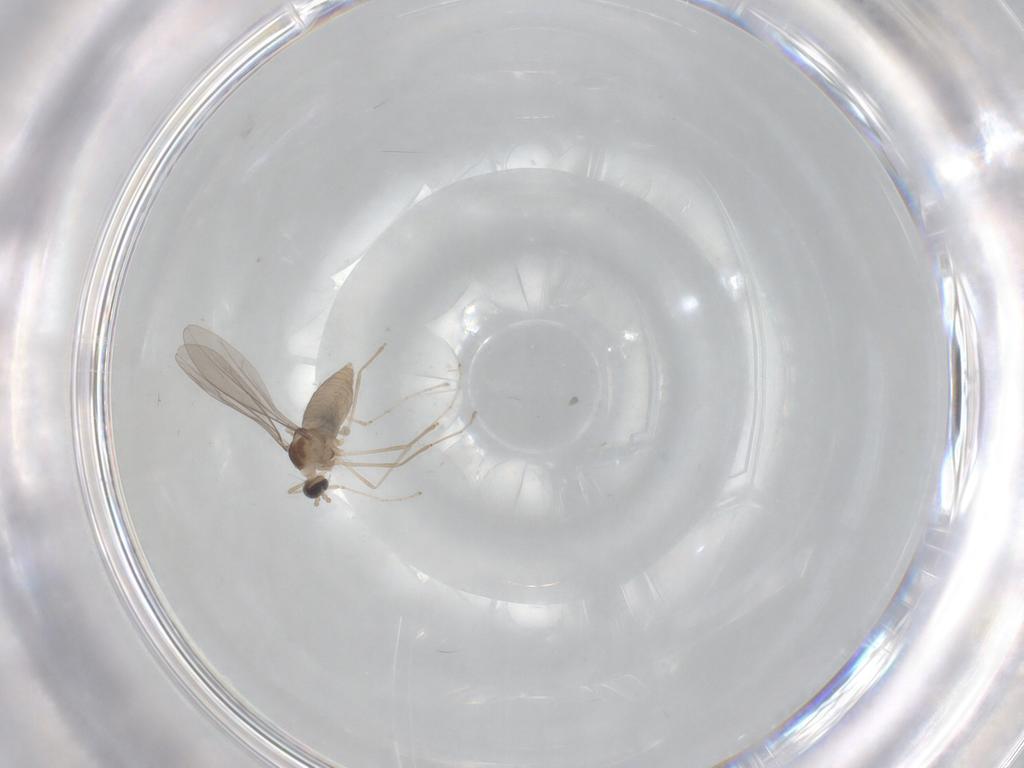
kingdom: Animalia
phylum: Arthropoda
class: Insecta
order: Diptera
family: Cecidomyiidae
